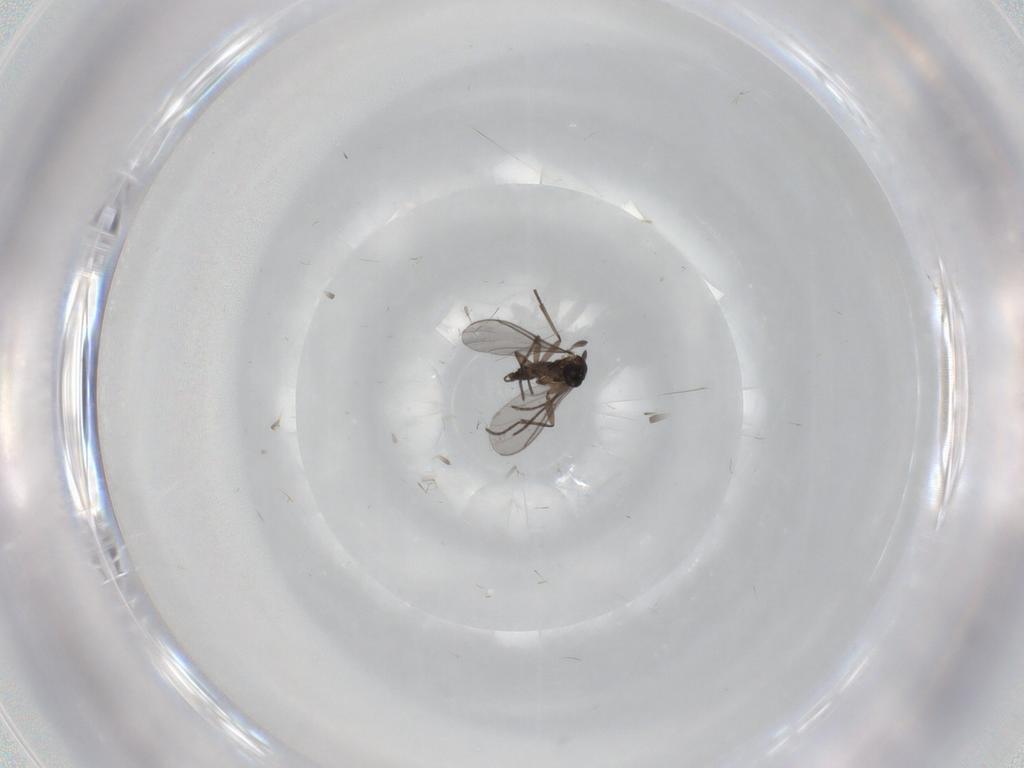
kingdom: Animalia
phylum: Arthropoda
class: Insecta
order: Diptera
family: Sciaridae
